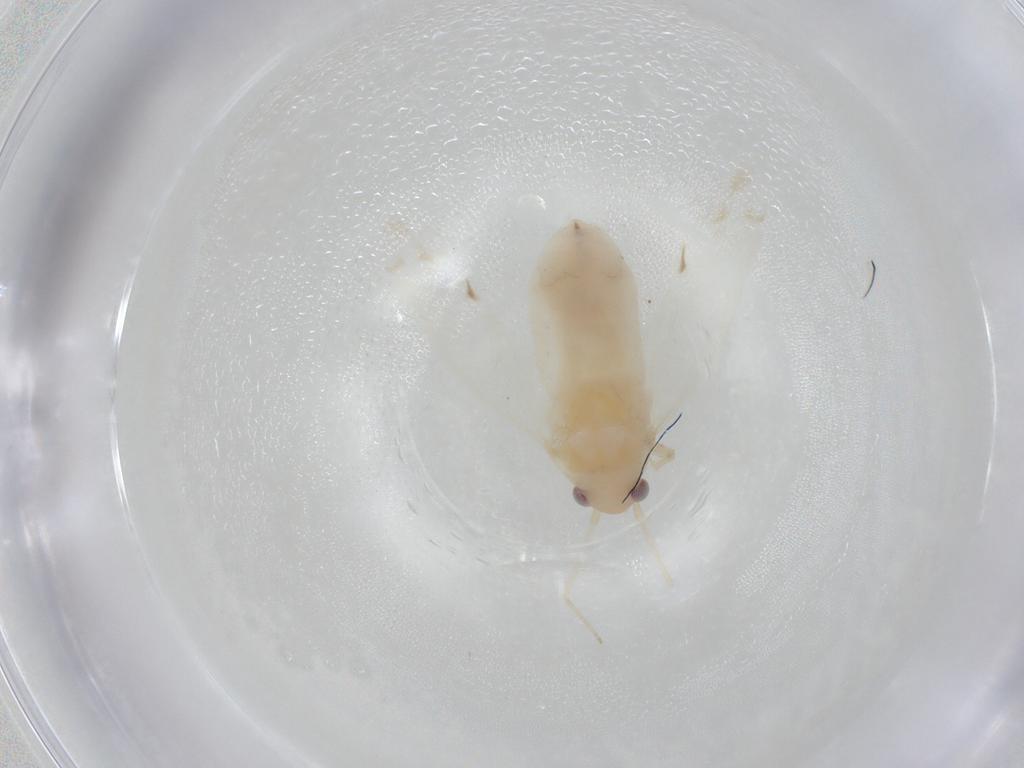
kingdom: Animalia
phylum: Arthropoda
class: Insecta
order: Hemiptera
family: Miridae
